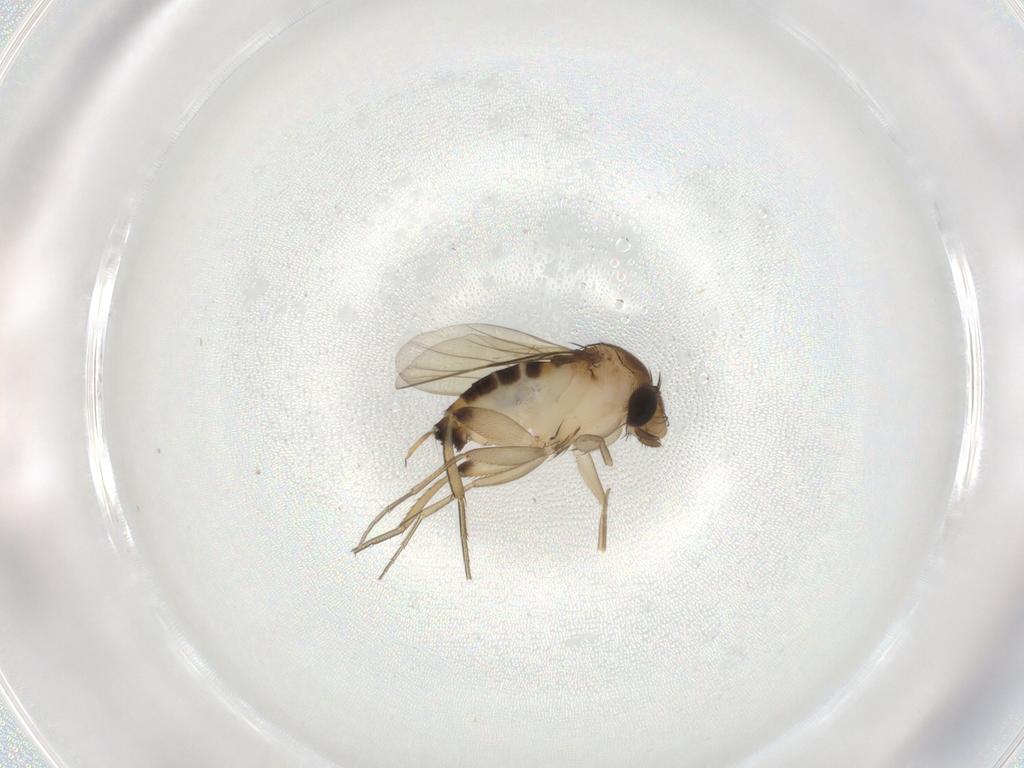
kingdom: Animalia
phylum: Arthropoda
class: Insecta
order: Diptera
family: Phoridae
